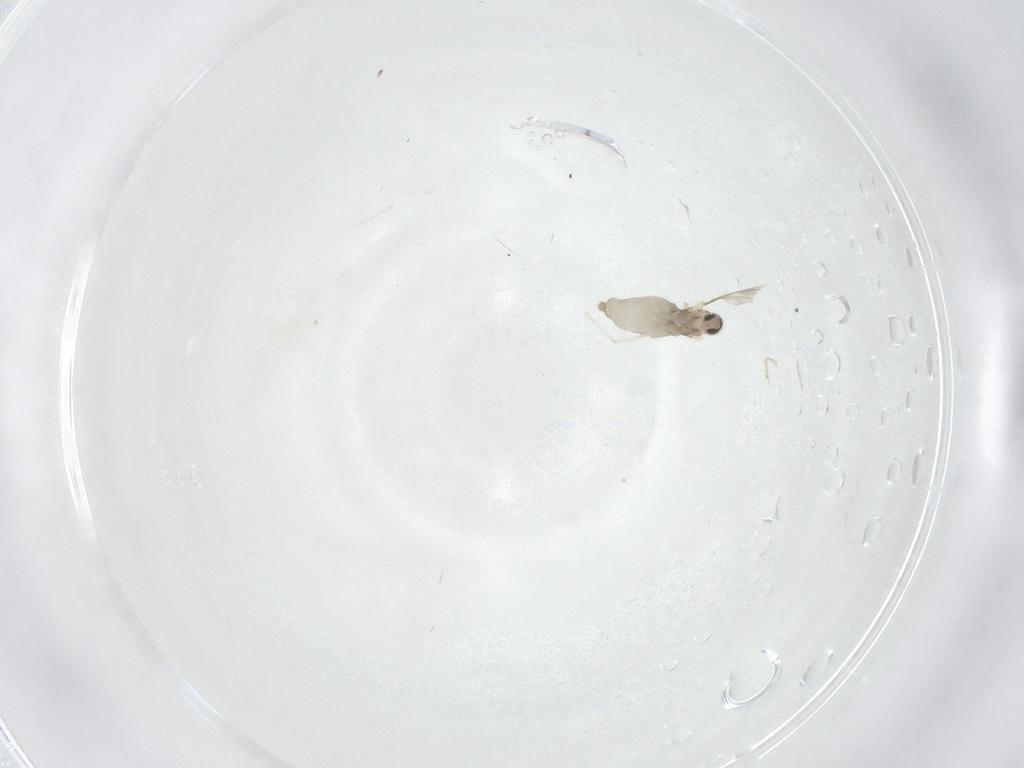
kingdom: Animalia
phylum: Arthropoda
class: Insecta
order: Diptera
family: Cecidomyiidae
